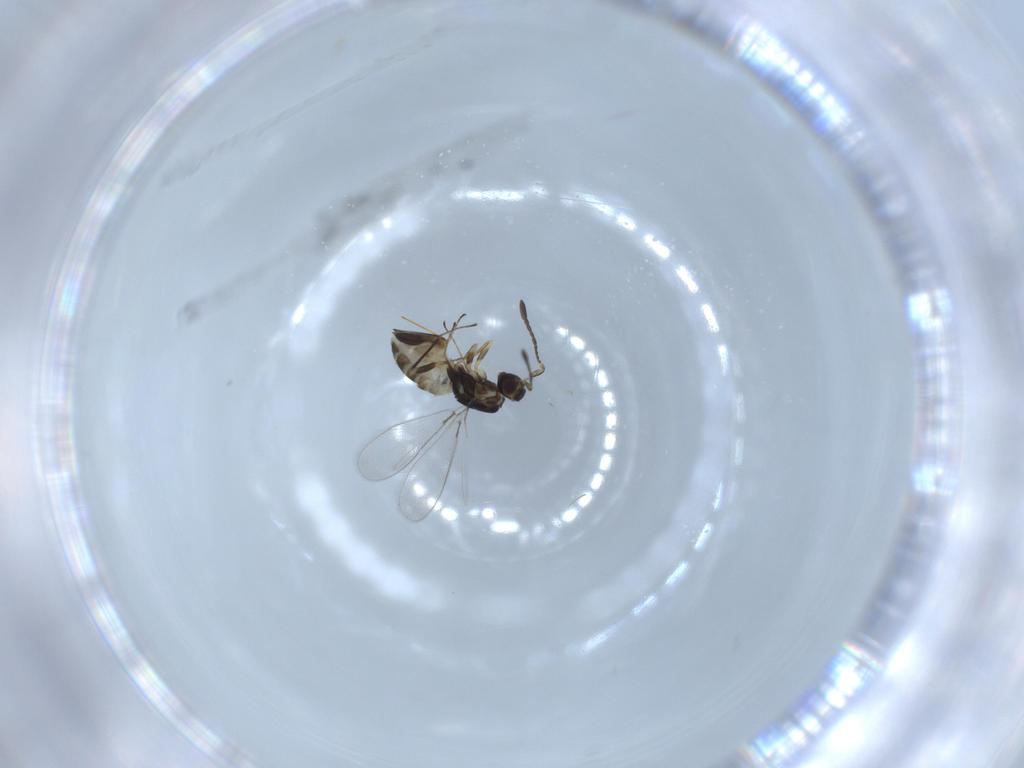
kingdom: Animalia
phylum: Arthropoda
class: Insecta
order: Hymenoptera
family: Mymaridae
